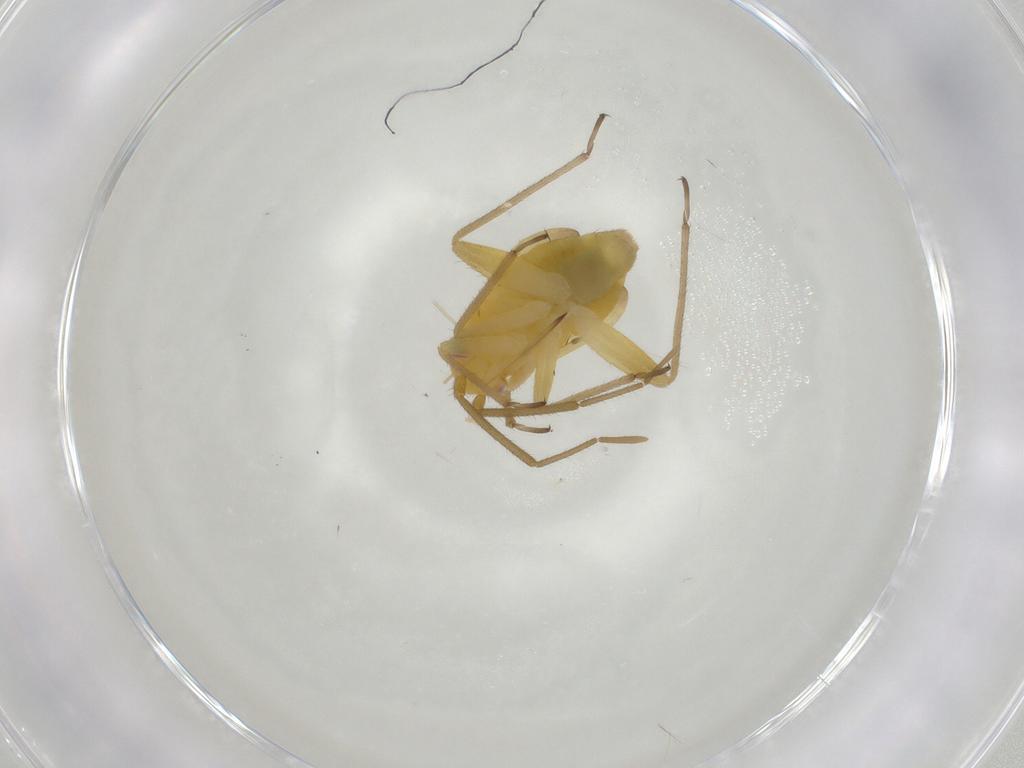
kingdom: Animalia
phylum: Arthropoda
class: Insecta
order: Hemiptera
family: Miridae
